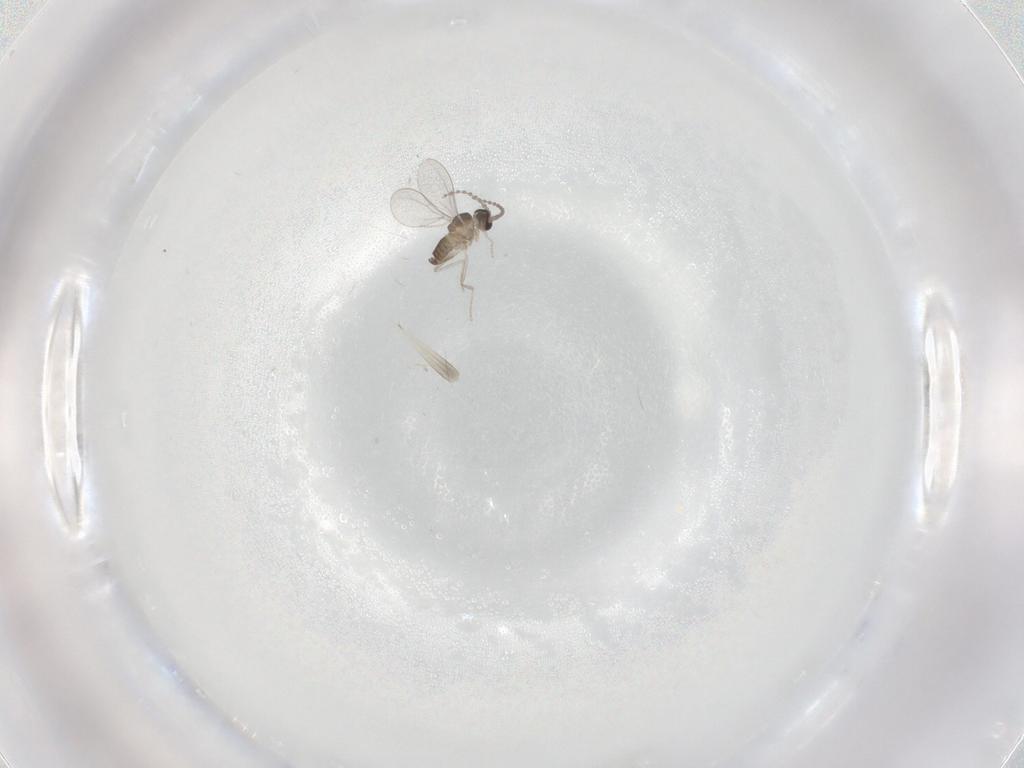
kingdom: Animalia
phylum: Arthropoda
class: Insecta
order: Diptera
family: Cecidomyiidae
